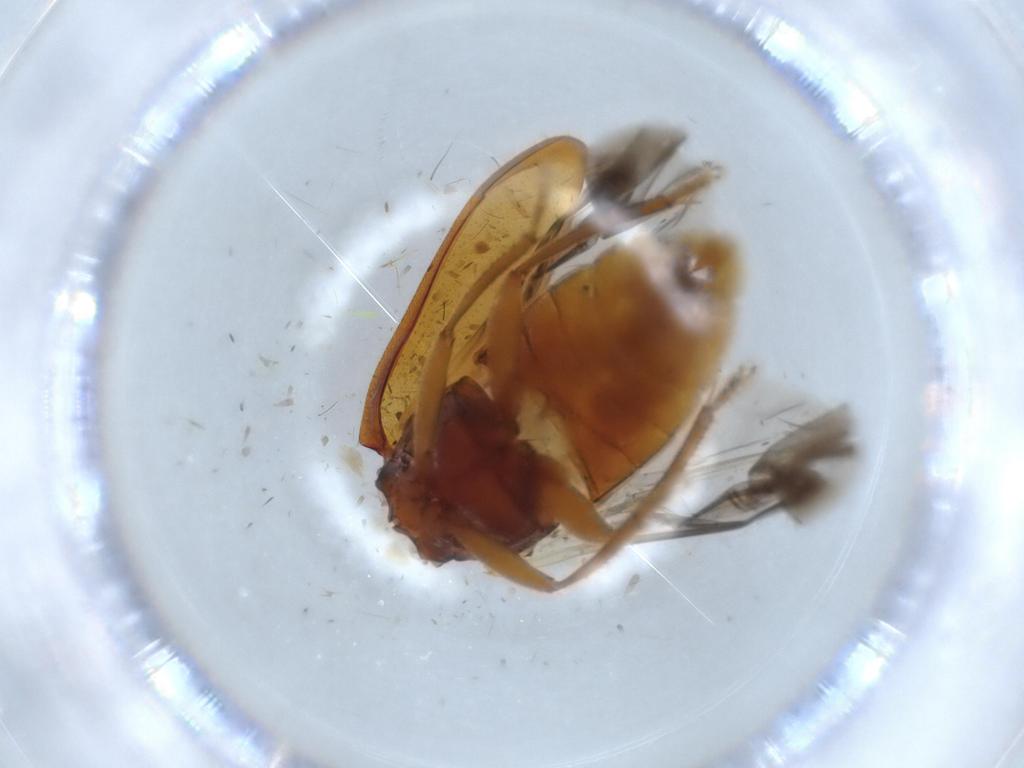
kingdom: Animalia
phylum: Arthropoda
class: Insecta
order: Coleoptera
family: Ptilodactylidae
